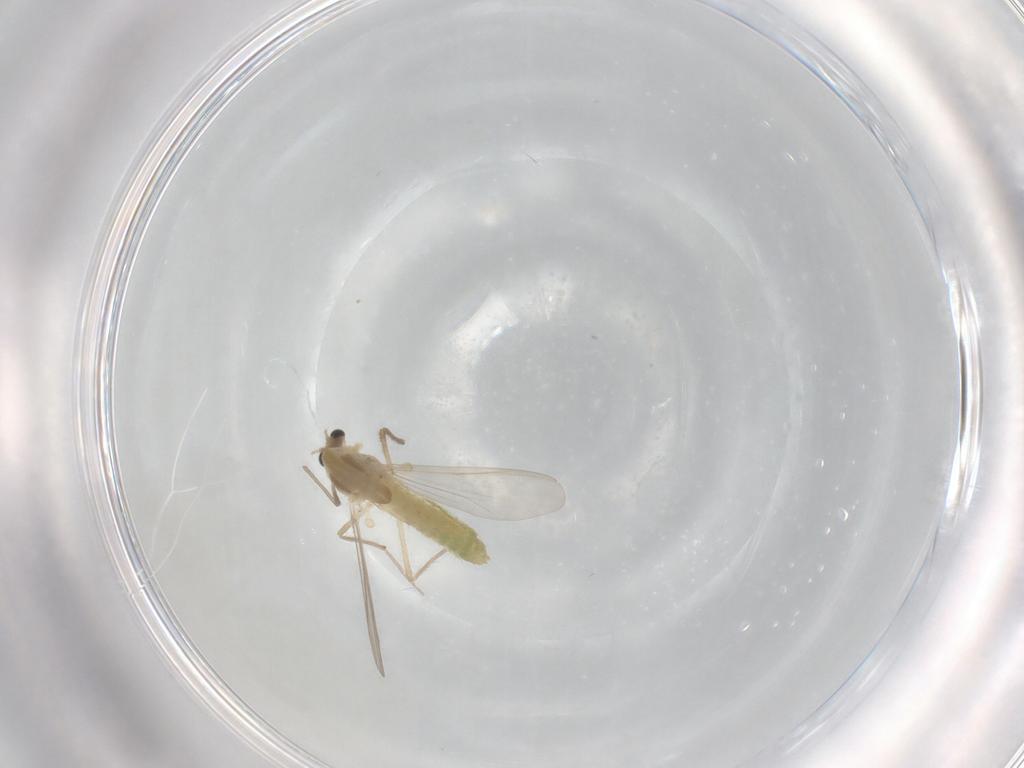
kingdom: Animalia
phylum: Arthropoda
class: Insecta
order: Diptera
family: Chironomidae
